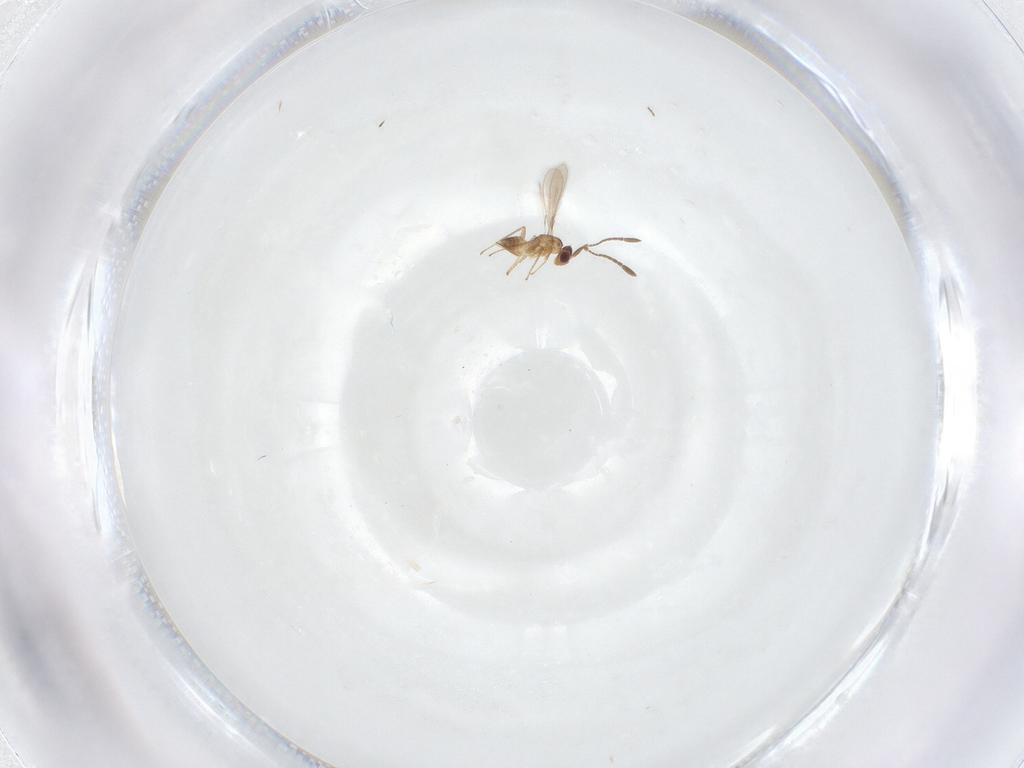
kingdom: Animalia
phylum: Arthropoda
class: Insecta
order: Hymenoptera
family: Mymaridae
